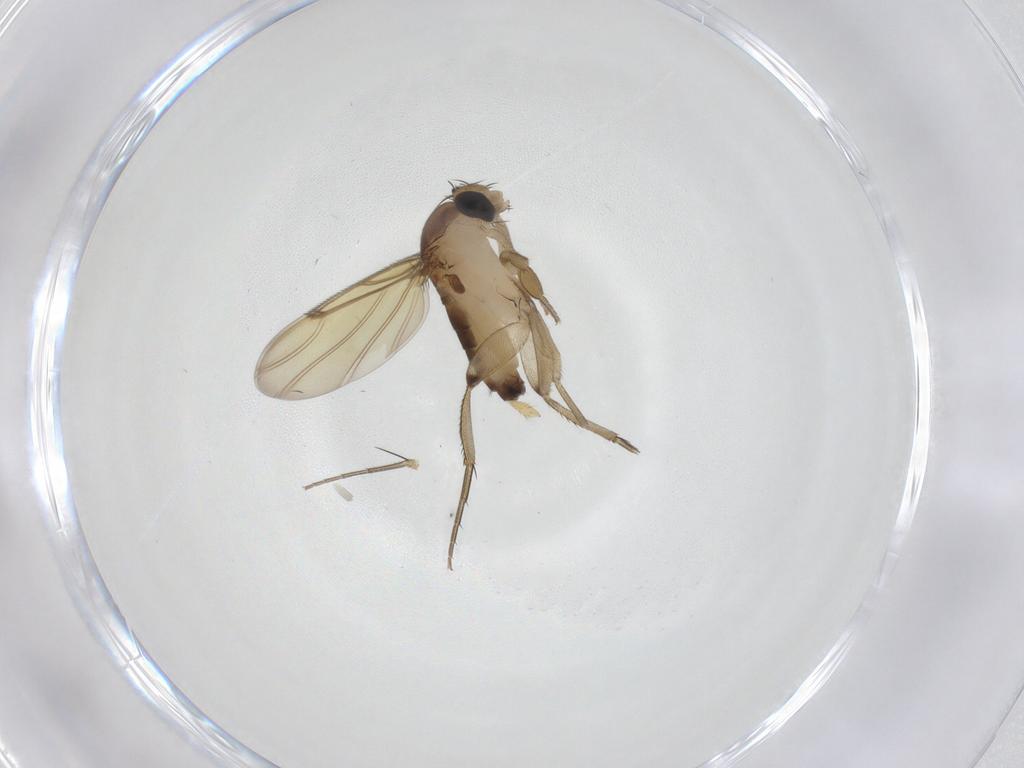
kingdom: Animalia
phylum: Arthropoda
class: Insecta
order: Diptera
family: Phoridae
